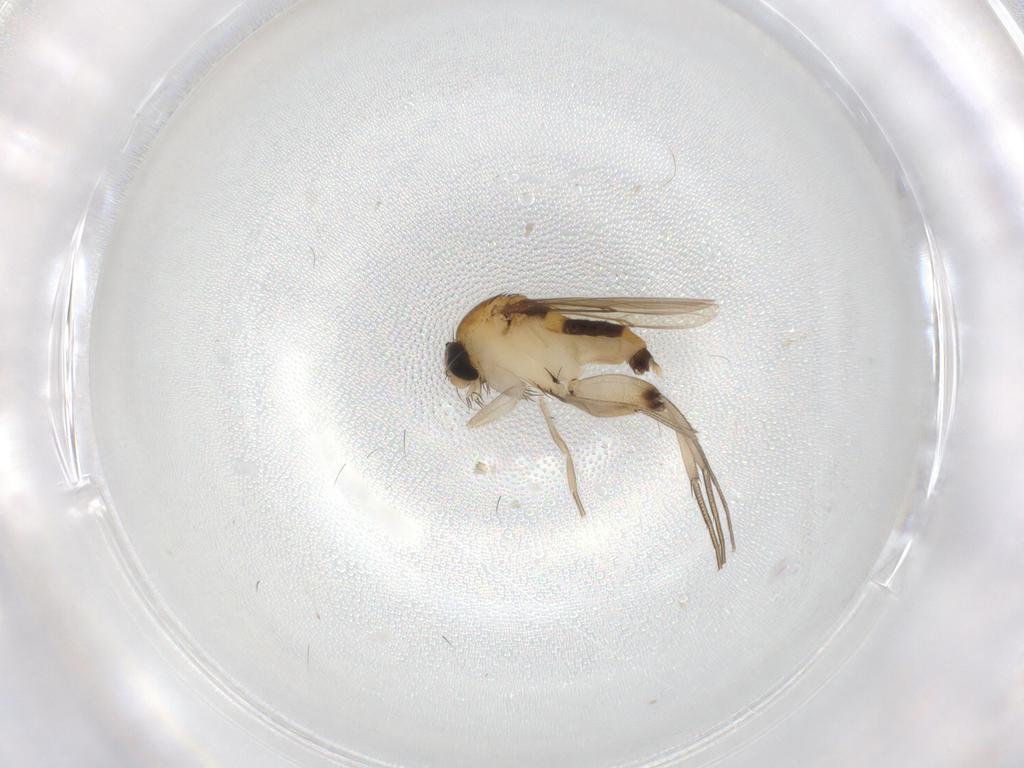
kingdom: Animalia
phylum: Arthropoda
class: Insecta
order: Diptera
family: Phoridae
